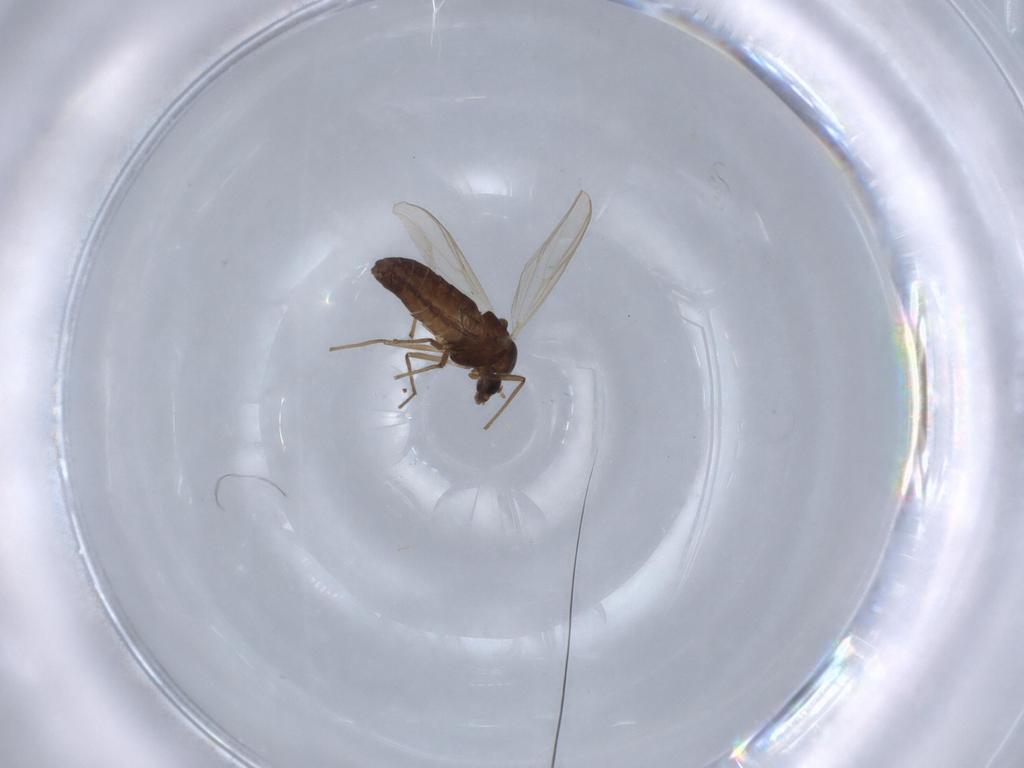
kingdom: Animalia
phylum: Arthropoda
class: Insecta
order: Diptera
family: Chironomidae
